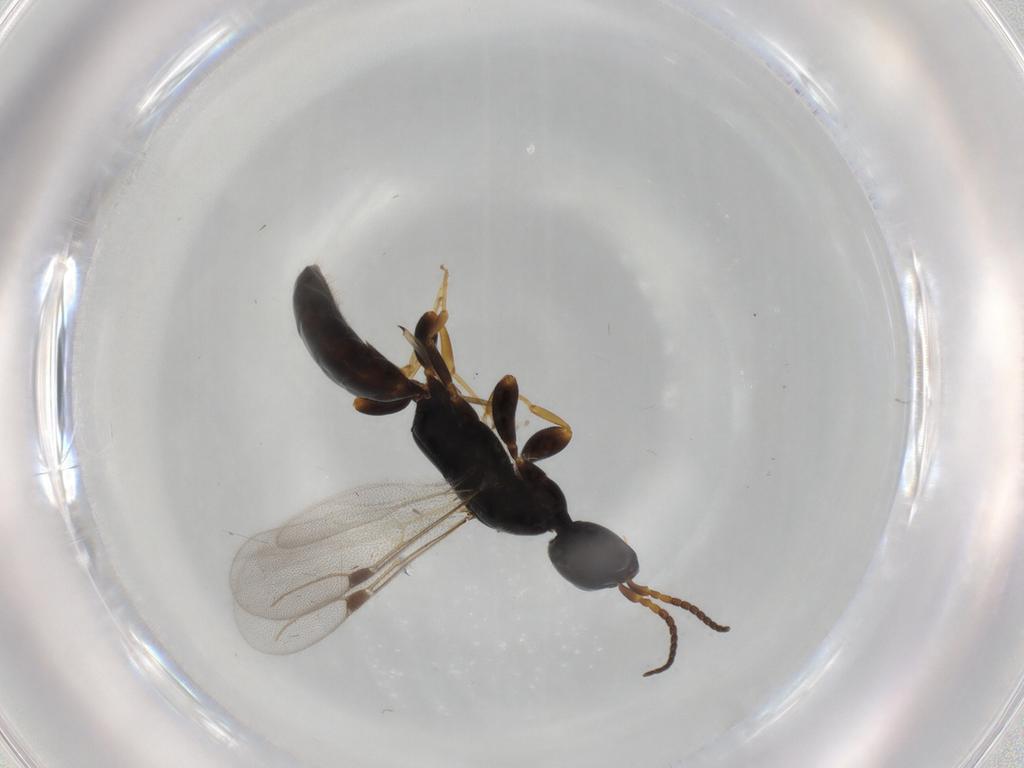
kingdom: Animalia
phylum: Arthropoda
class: Insecta
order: Hymenoptera
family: Bethylidae
